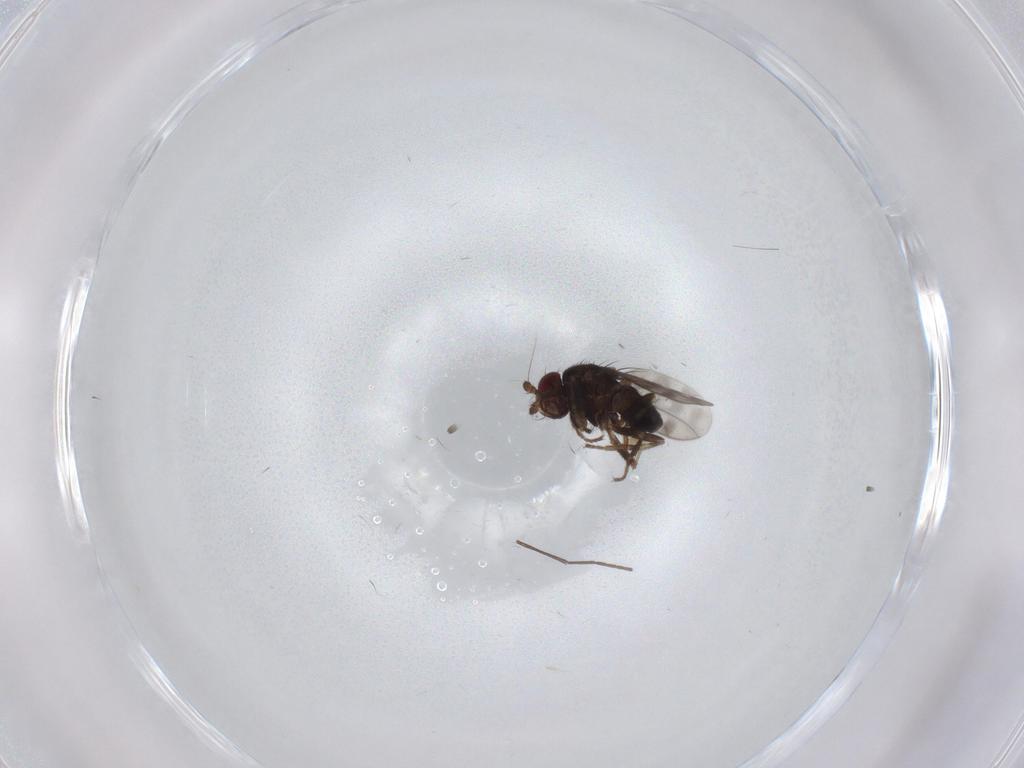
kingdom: Animalia
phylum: Arthropoda
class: Insecta
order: Diptera
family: Sphaeroceridae
